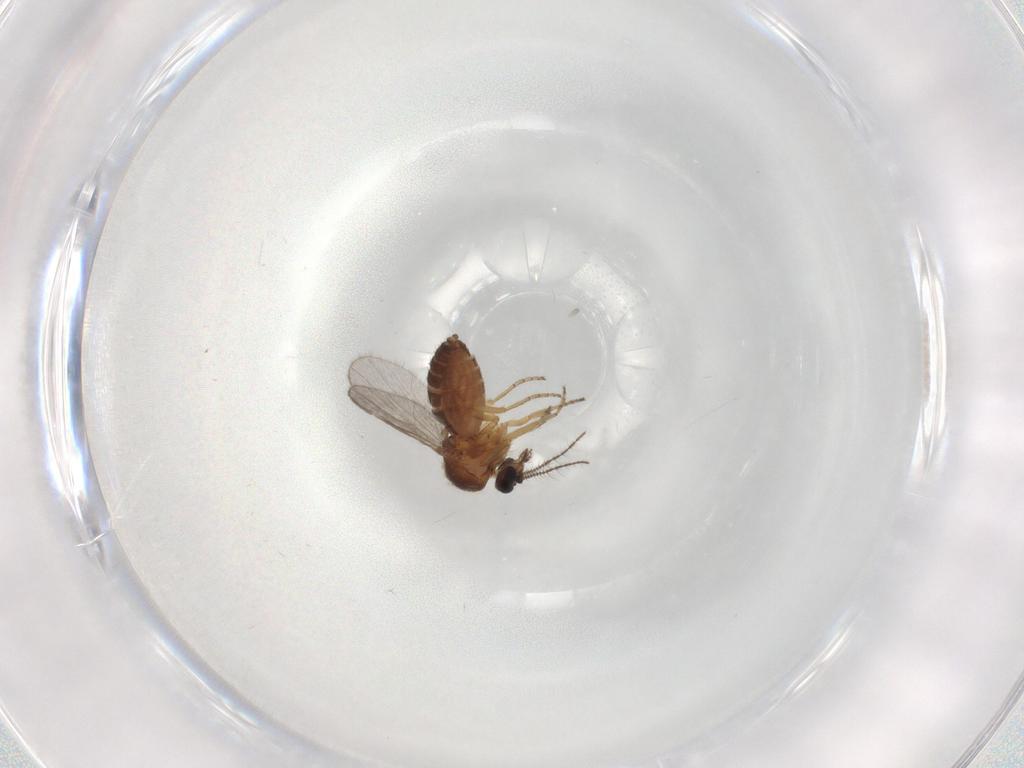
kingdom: Animalia
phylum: Arthropoda
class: Insecta
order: Diptera
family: Ceratopogonidae
